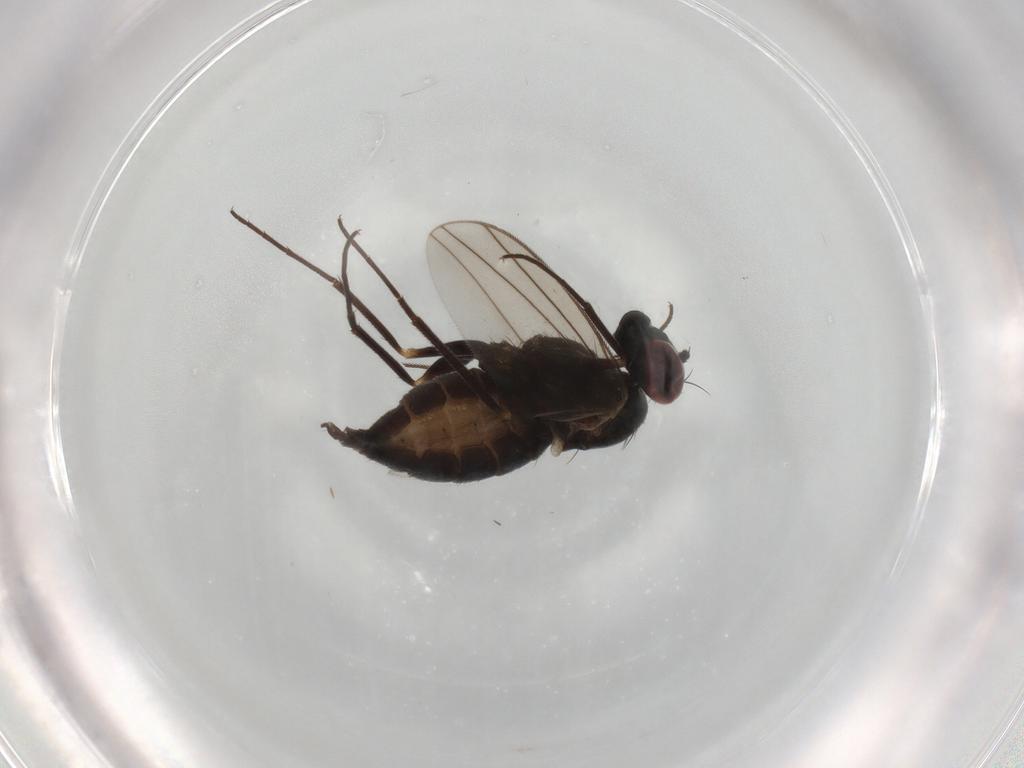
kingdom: Animalia
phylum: Arthropoda
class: Insecta
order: Diptera
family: Dolichopodidae
